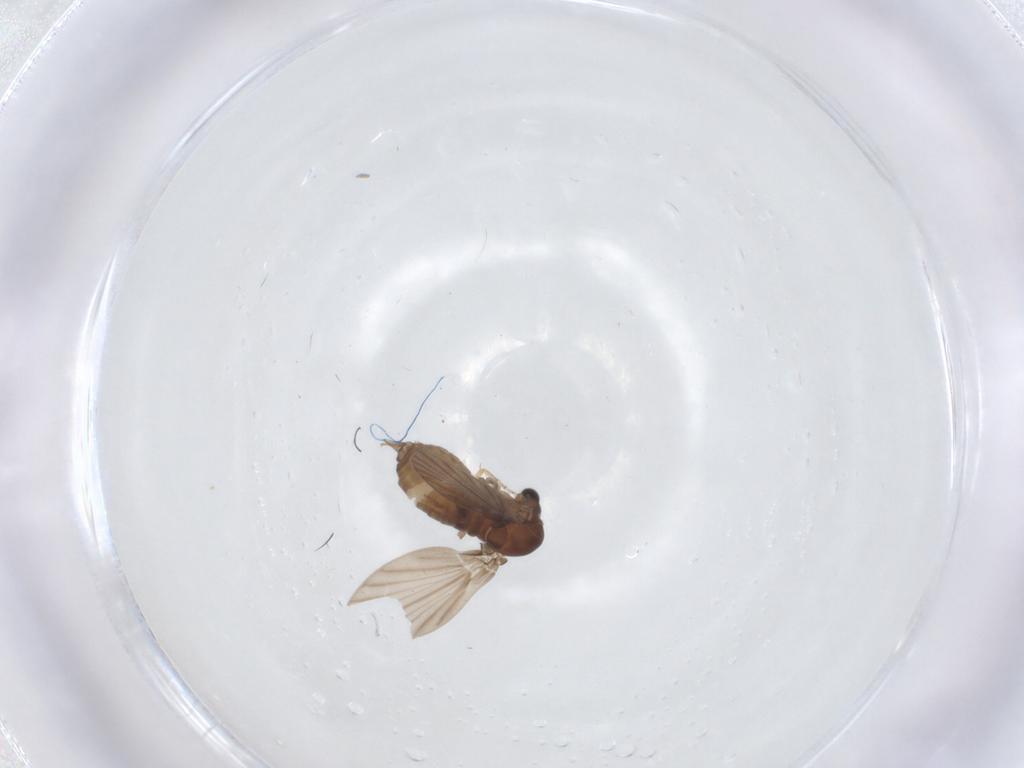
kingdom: Animalia
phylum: Arthropoda
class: Insecta
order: Diptera
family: Psychodidae
